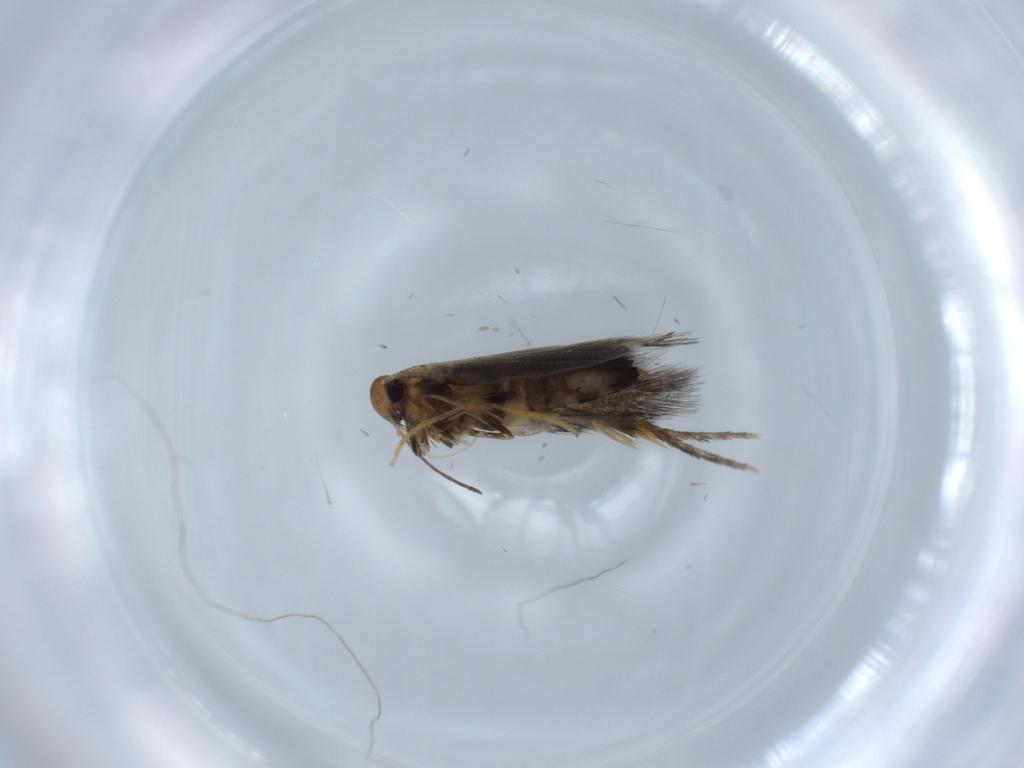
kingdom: Animalia
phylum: Arthropoda
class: Insecta
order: Lepidoptera
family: Heliozelidae
